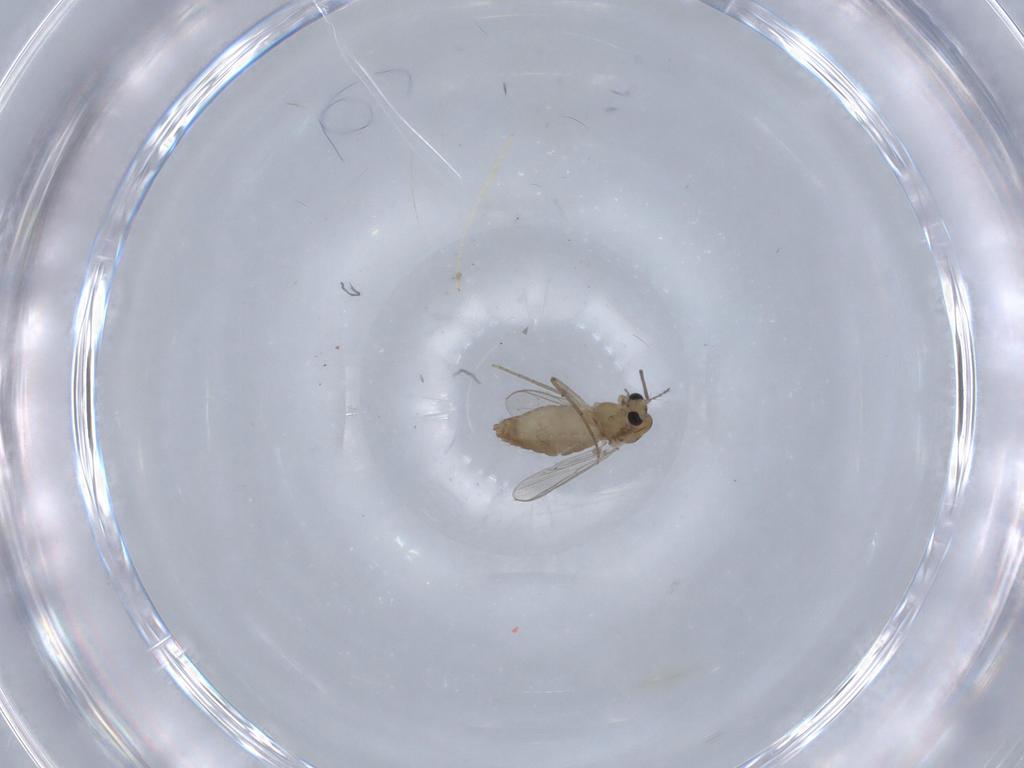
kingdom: Animalia
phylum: Arthropoda
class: Insecta
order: Diptera
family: Chironomidae
